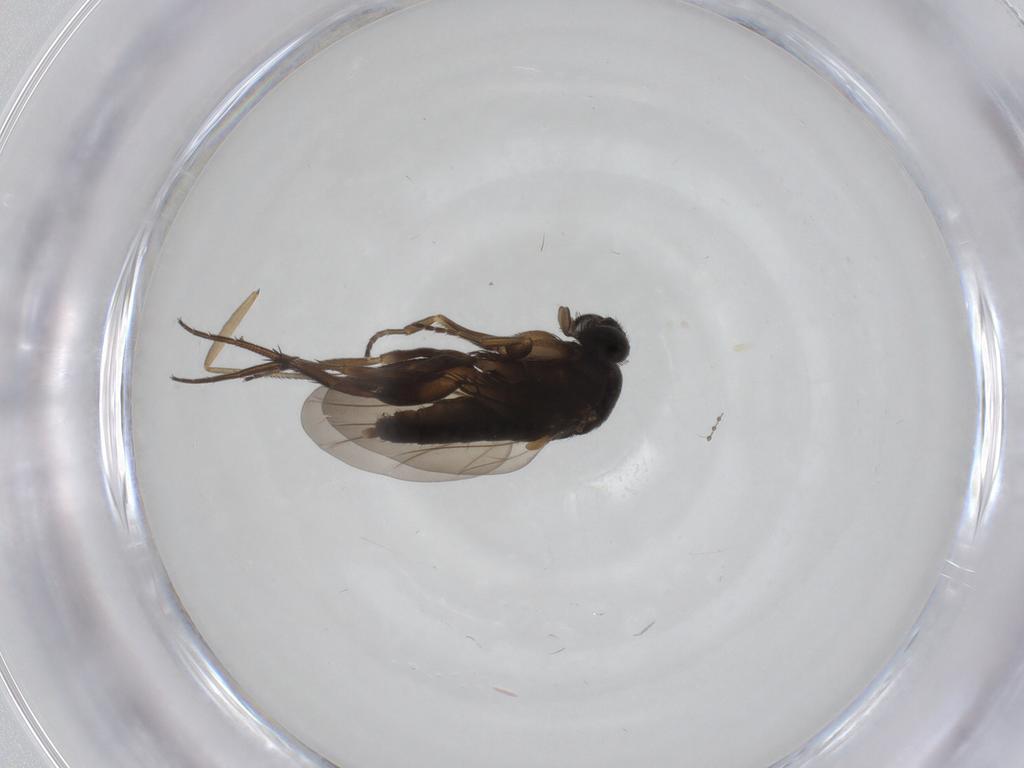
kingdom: Animalia
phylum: Arthropoda
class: Insecta
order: Diptera
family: Phoridae
